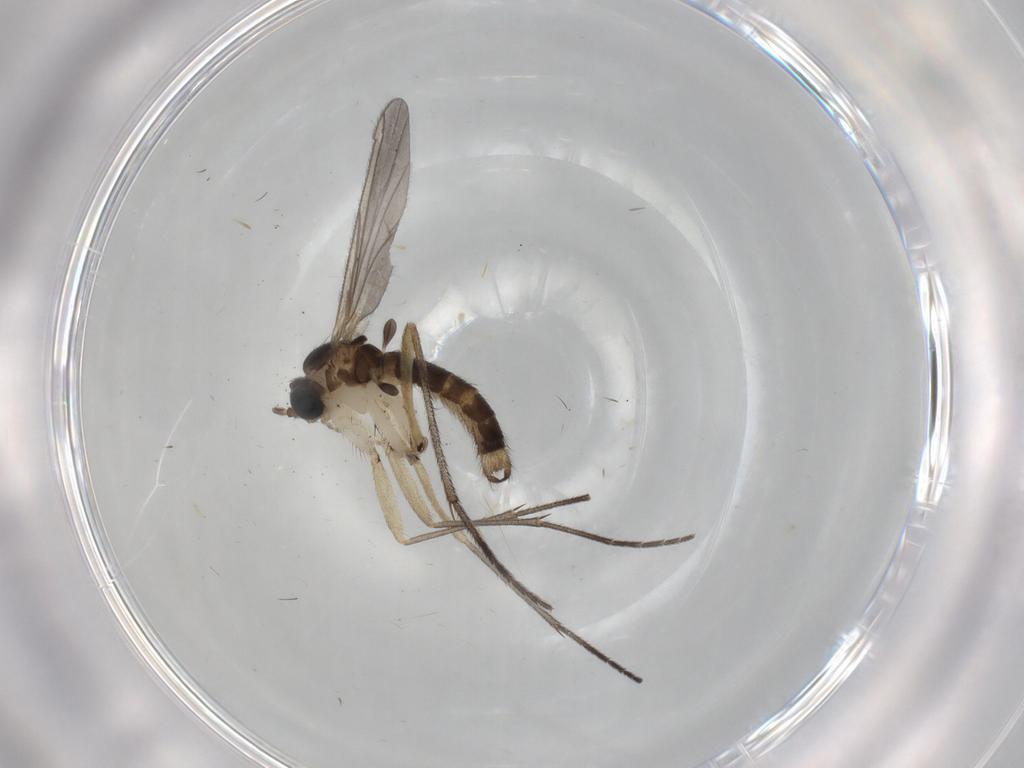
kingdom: Animalia
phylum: Arthropoda
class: Insecta
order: Diptera
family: Sciaridae
